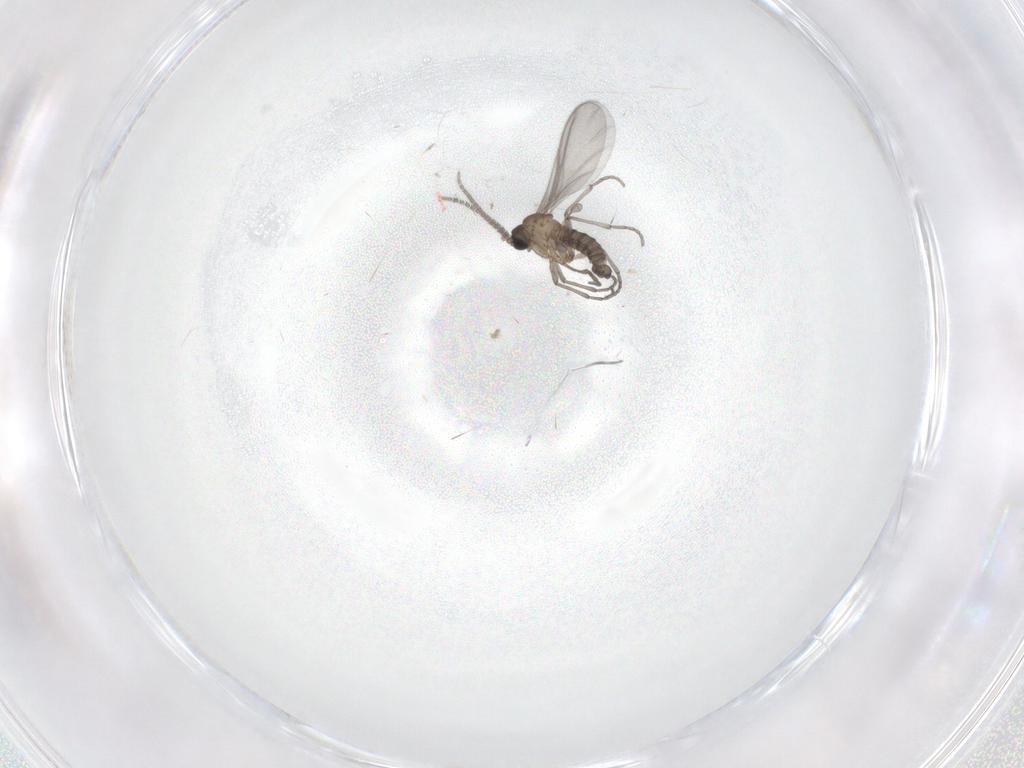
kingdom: Animalia
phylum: Arthropoda
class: Insecta
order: Diptera
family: Sciaridae
